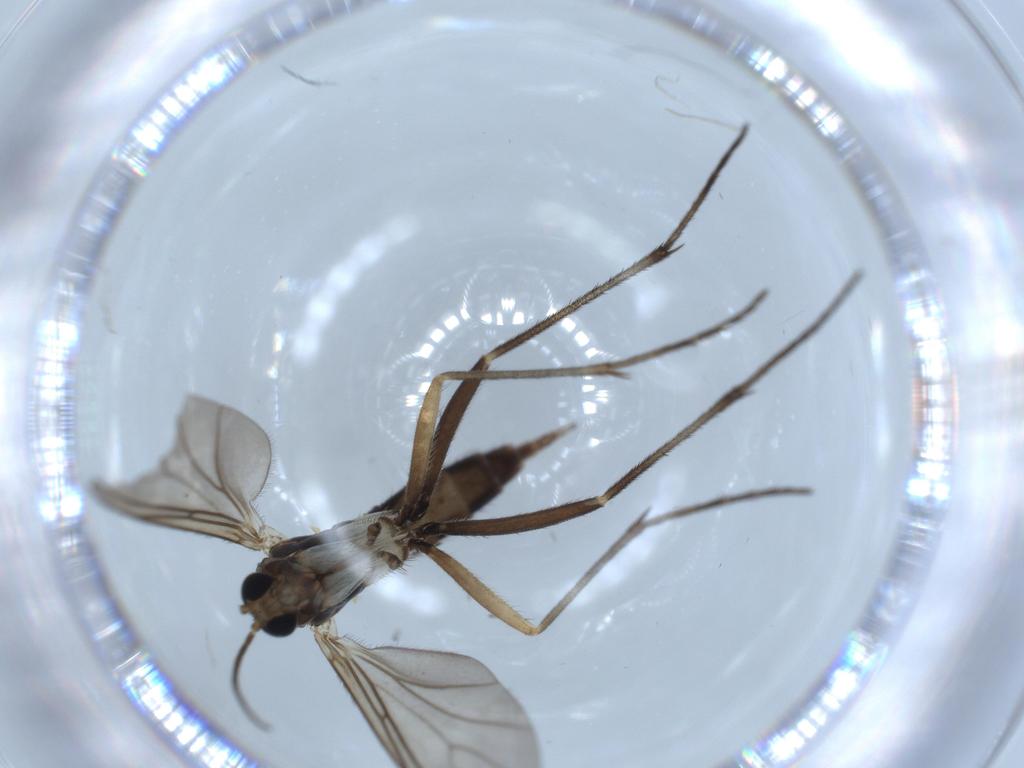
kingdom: Animalia
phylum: Arthropoda
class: Insecta
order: Diptera
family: Sciaridae
